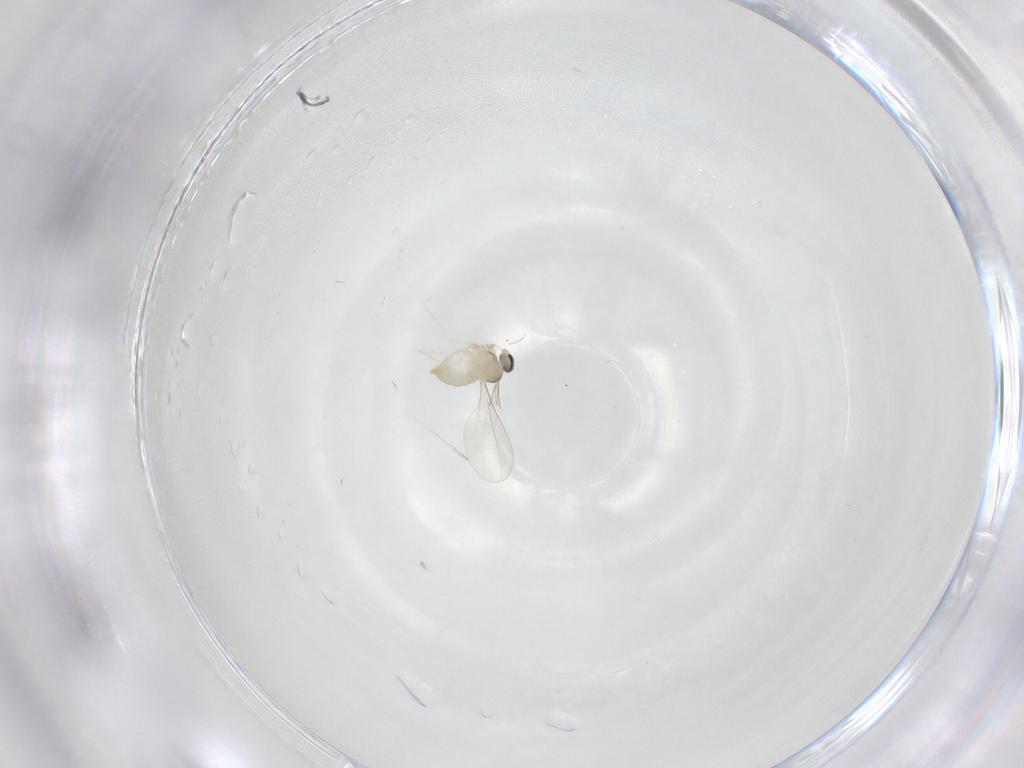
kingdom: Animalia
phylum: Arthropoda
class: Insecta
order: Diptera
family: Cecidomyiidae
